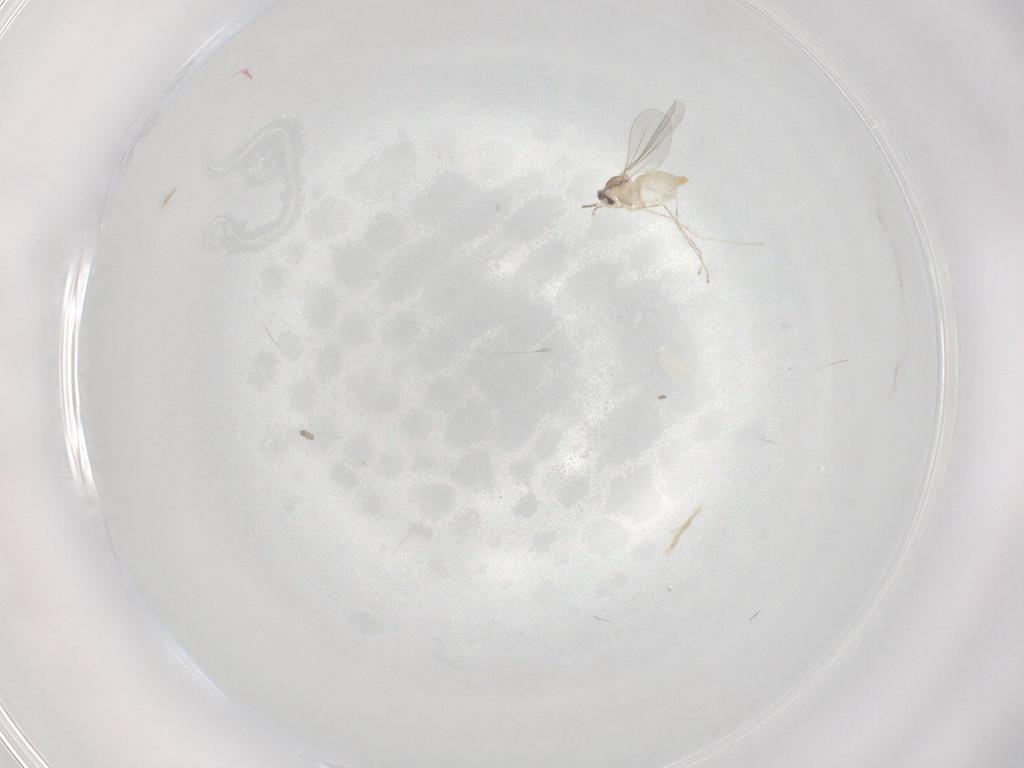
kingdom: Animalia
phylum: Arthropoda
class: Insecta
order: Diptera
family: Cecidomyiidae
